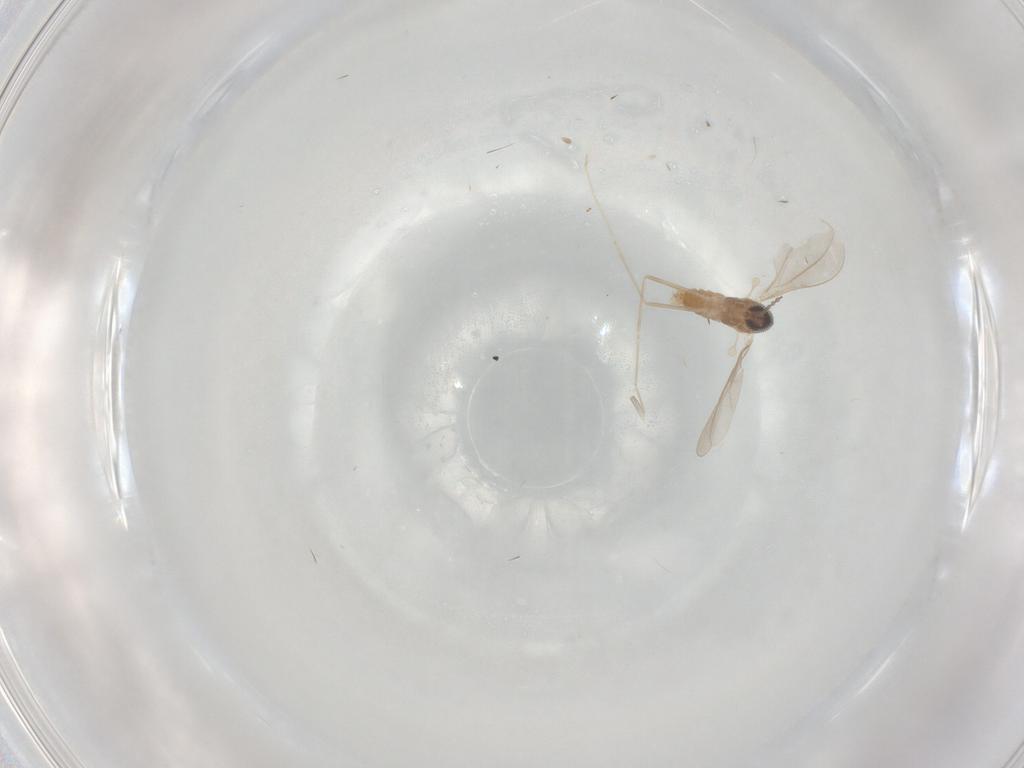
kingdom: Animalia
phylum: Arthropoda
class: Insecta
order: Diptera
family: Cecidomyiidae
